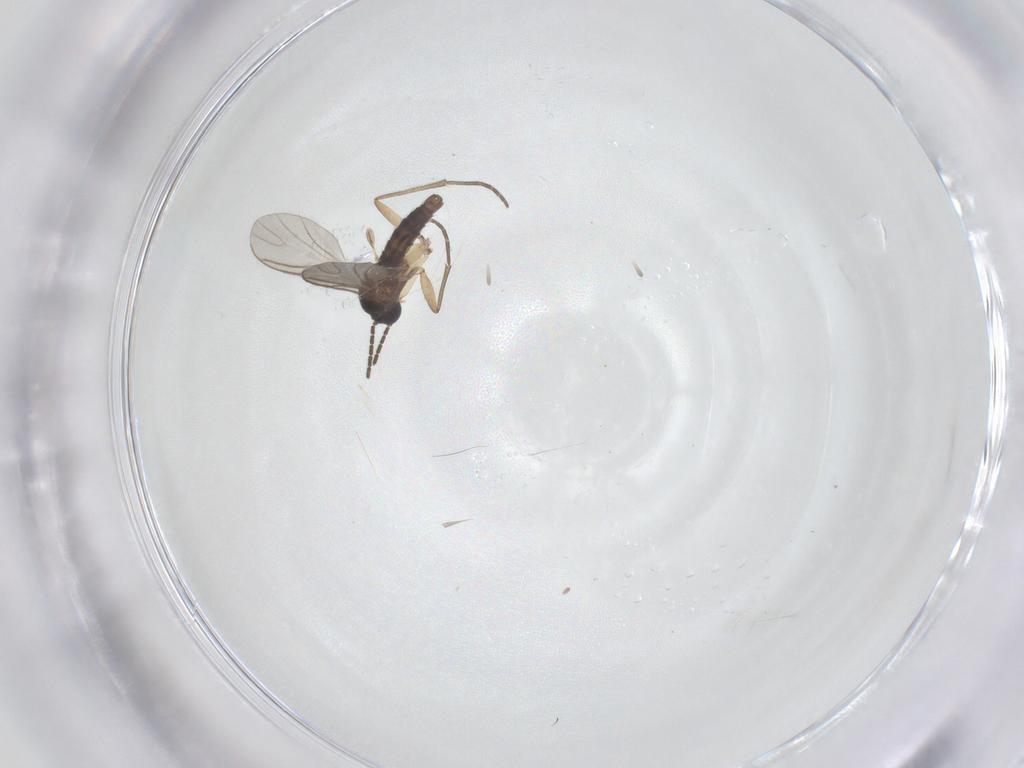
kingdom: Animalia
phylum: Arthropoda
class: Insecta
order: Diptera
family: Sciaridae
